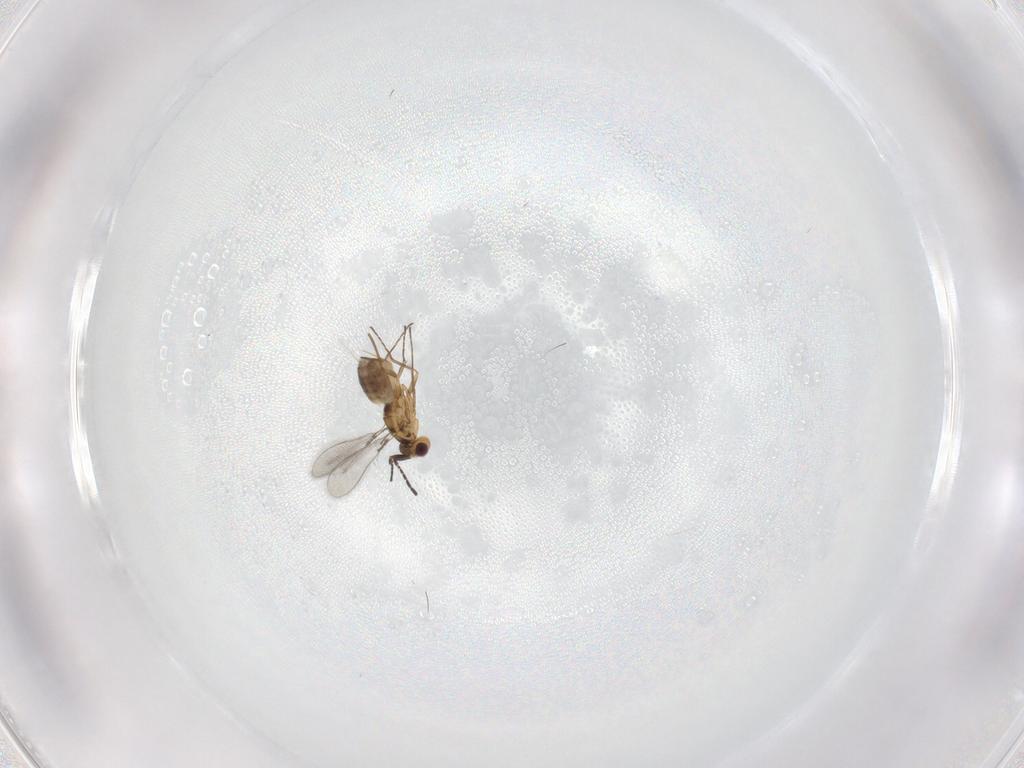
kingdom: Animalia
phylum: Arthropoda
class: Insecta
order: Hymenoptera
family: Mymaridae
